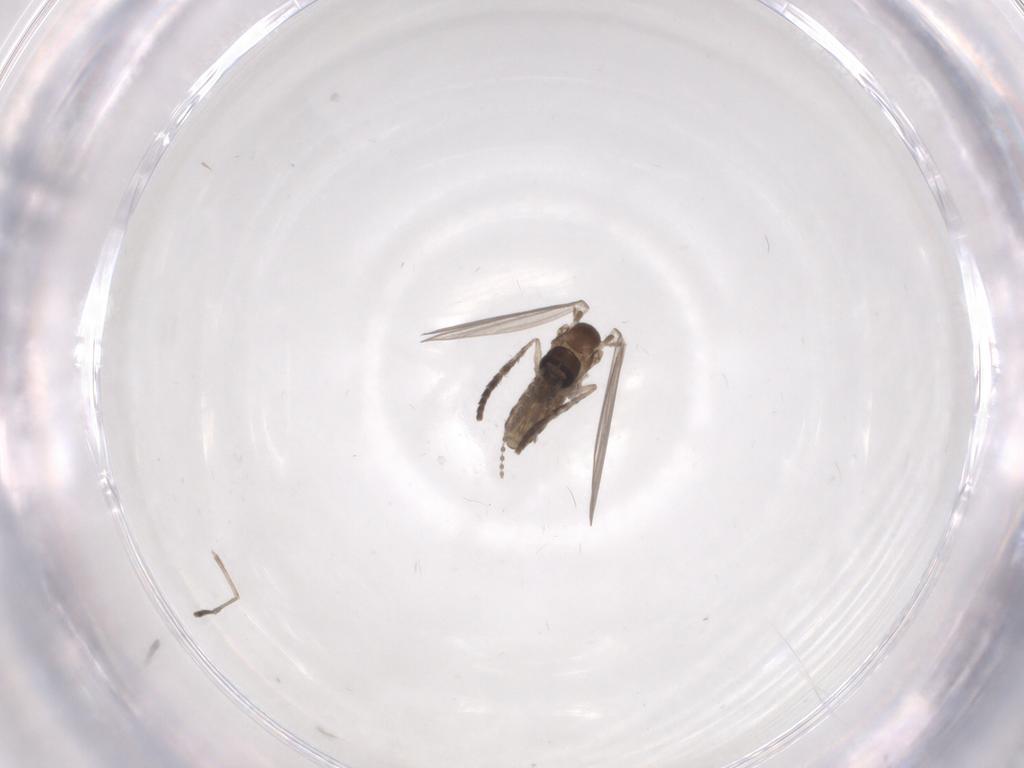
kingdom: Animalia
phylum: Arthropoda
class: Insecta
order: Diptera
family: Psychodidae
